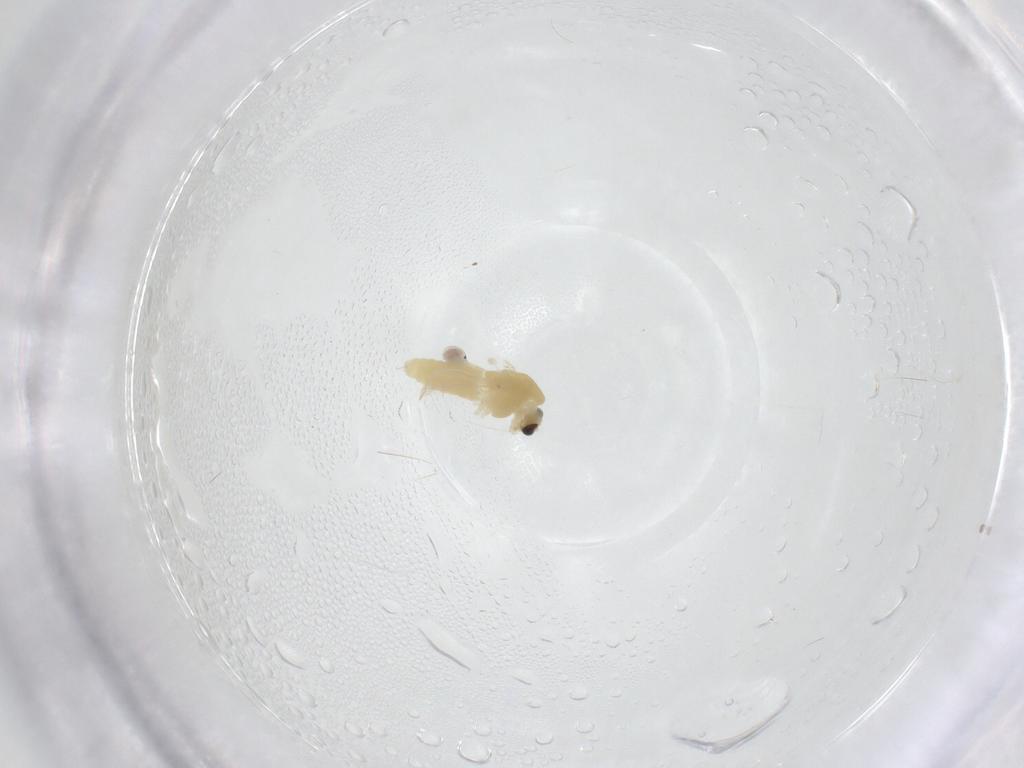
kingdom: Animalia
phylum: Arthropoda
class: Insecta
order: Diptera
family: Chironomidae
